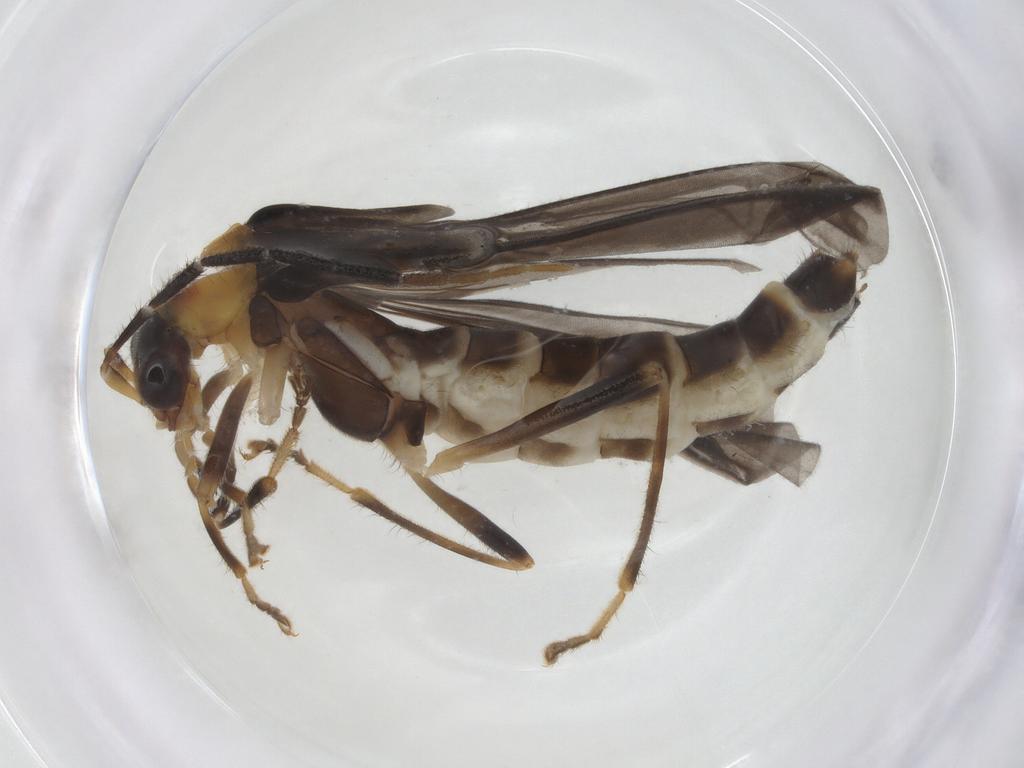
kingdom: Animalia
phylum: Arthropoda
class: Insecta
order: Coleoptera
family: Cantharidae
